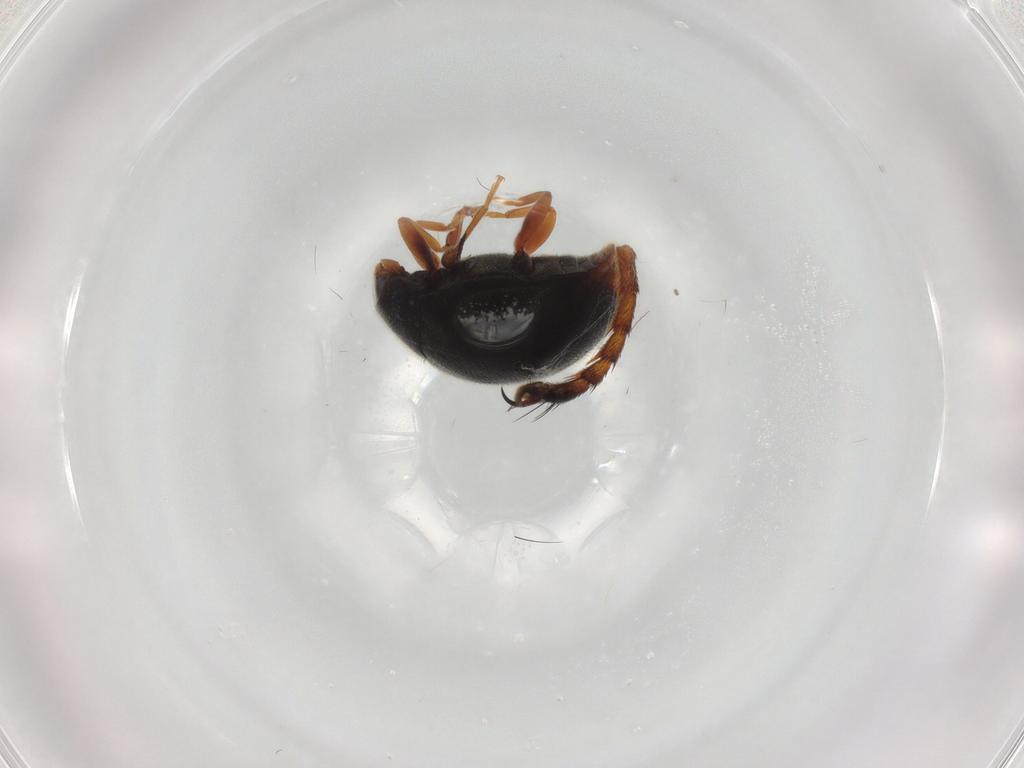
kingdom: Animalia
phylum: Arthropoda
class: Insecta
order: Coleoptera
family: Coccinellidae
